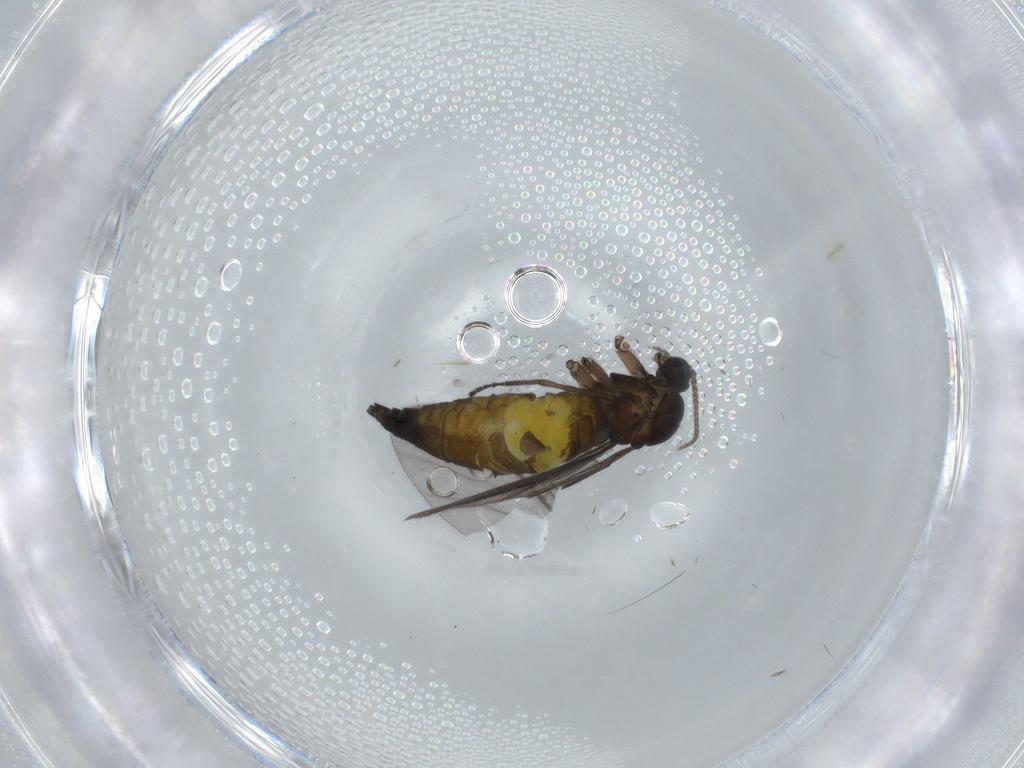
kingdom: Animalia
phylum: Arthropoda
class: Insecta
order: Diptera
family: Sciaridae
